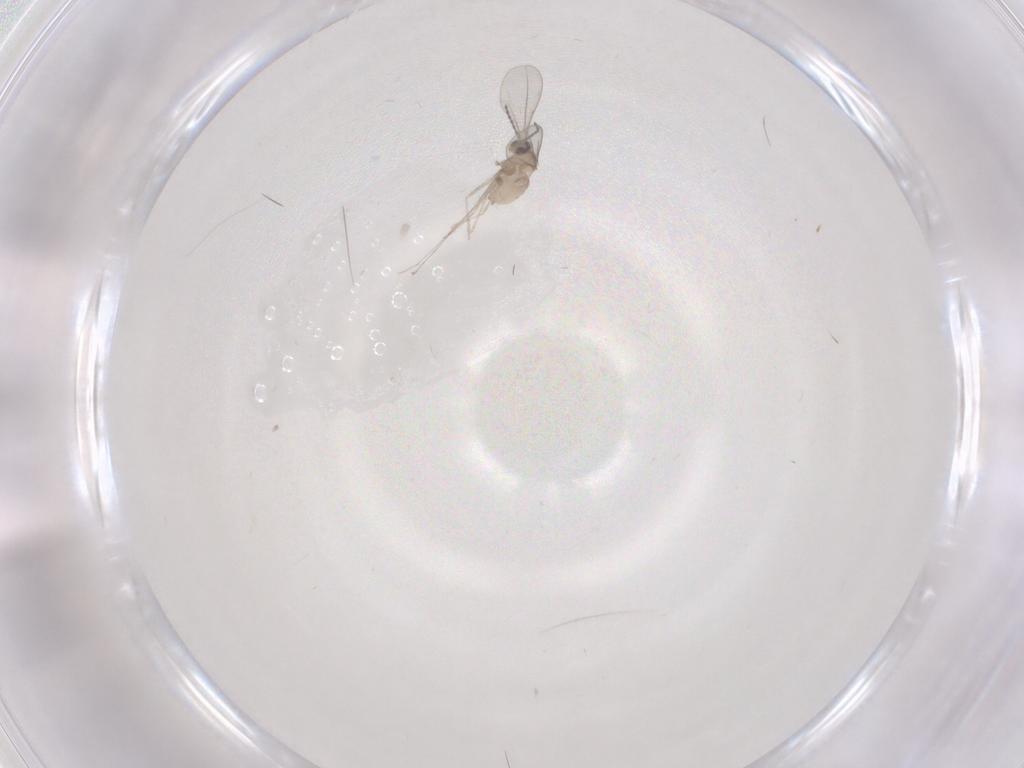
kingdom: Animalia
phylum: Arthropoda
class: Insecta
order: Diptera
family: Cecidomyiidae
